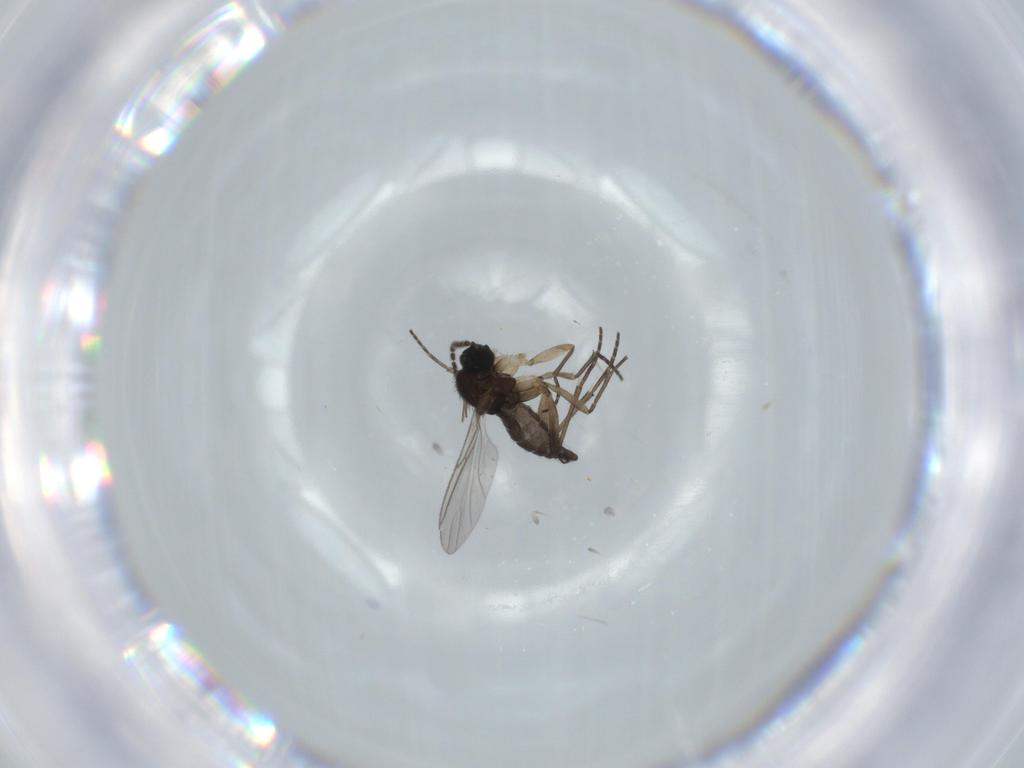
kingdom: Animalia
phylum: Arthropoda
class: Insecta
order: Diptera
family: Sciaridae
